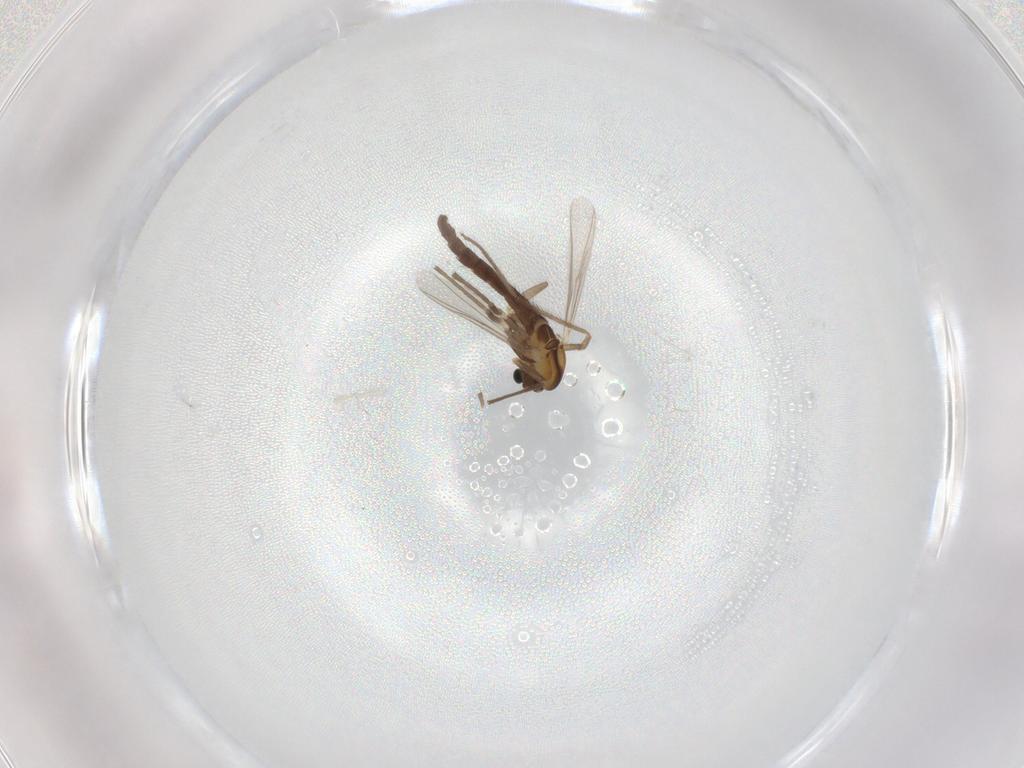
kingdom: Animalia
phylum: Arthropoda
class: Insecta
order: Diptera
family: Chironomidae
